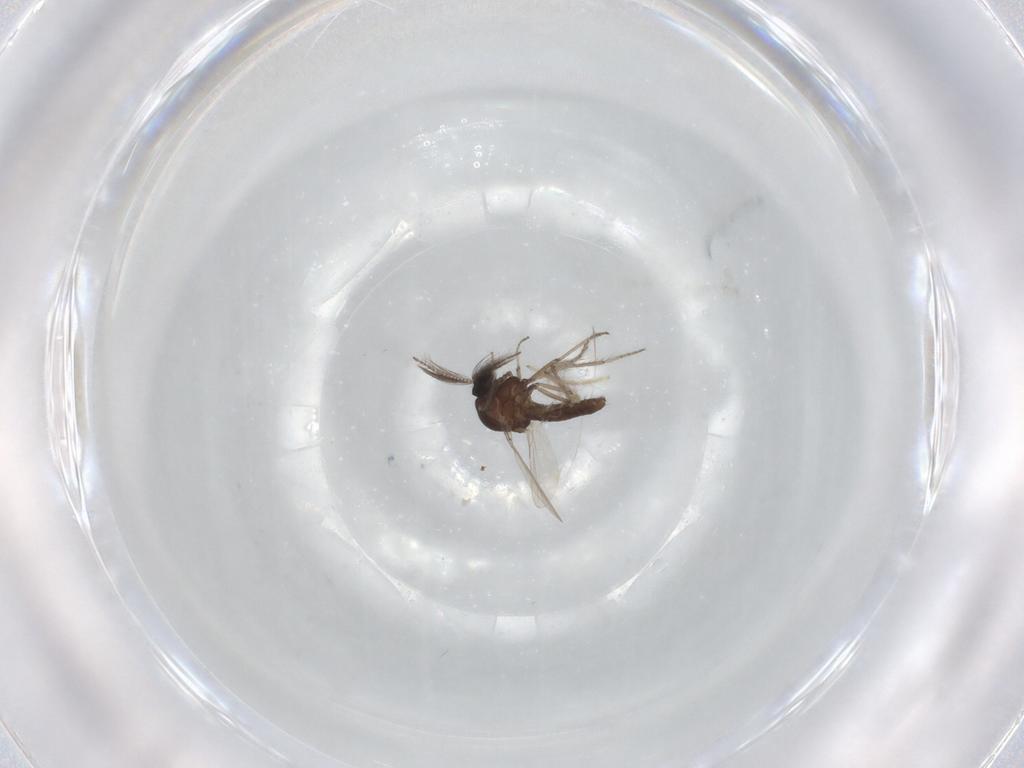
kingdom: Animalia
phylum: Arthropoda
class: Insecta
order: Diptera
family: Ceratopogonidae
